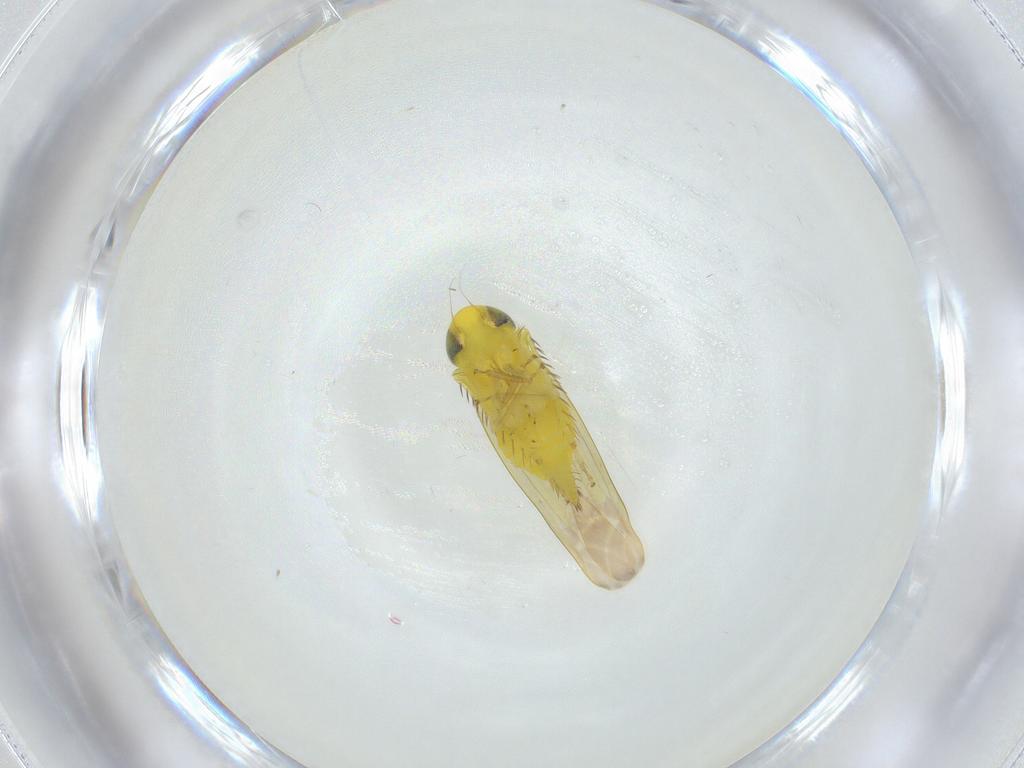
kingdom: Animalia
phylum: Arthropoda
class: Insecta
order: Hemiptera
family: Cicadellidae
